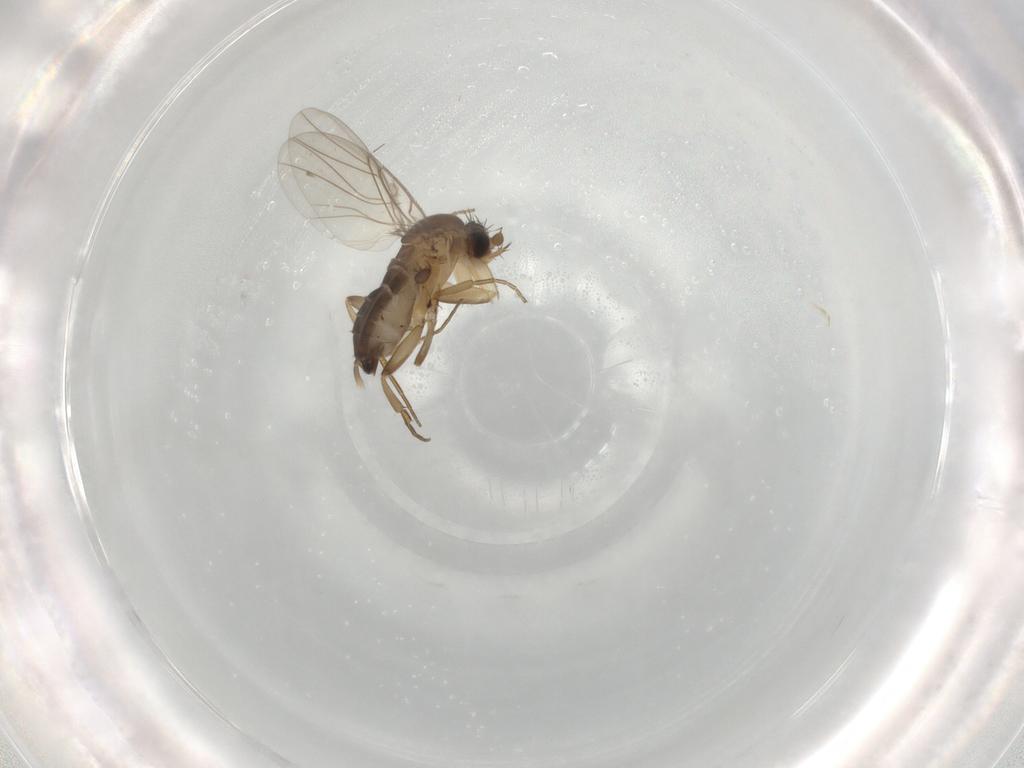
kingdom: Animalia
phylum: Arthropoda
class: Insecta
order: Diptera
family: Phoridae
